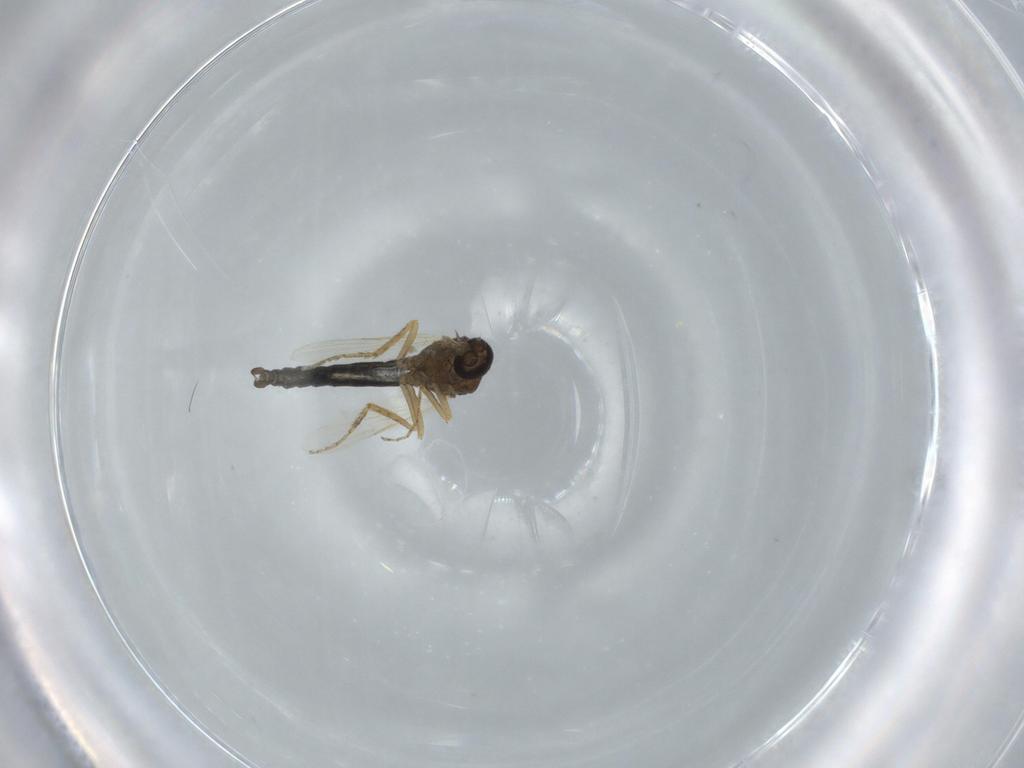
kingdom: Animalia
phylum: Arthropoda
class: Insecta
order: Diptera
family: Ceratopogonidae
